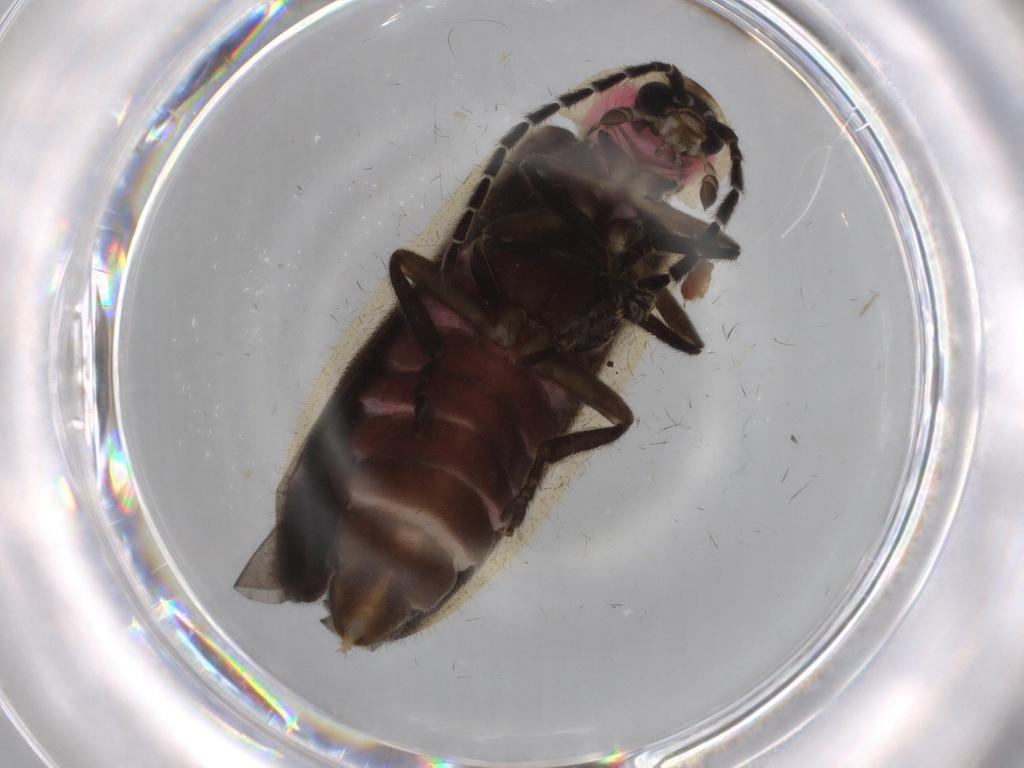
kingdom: Animalia
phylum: Arthropoda
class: Insecta
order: Coleoptera
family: Lampyridae
